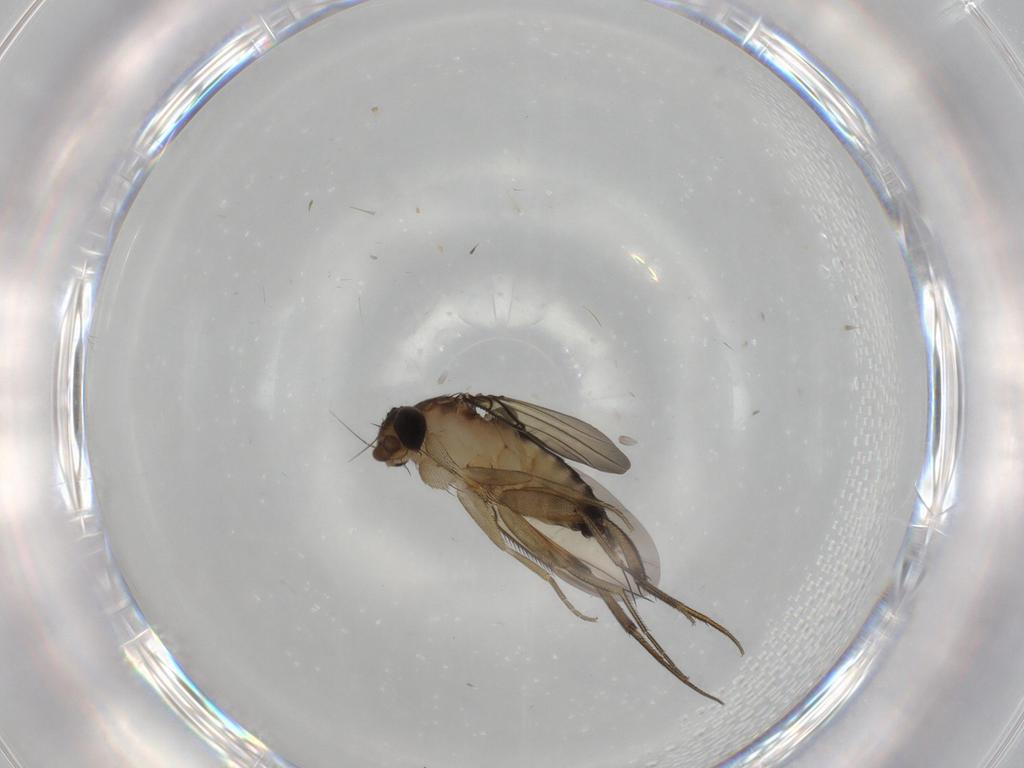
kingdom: Animalia
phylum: Arthropoda
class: Insecta
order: Diptera
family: Phoridae
